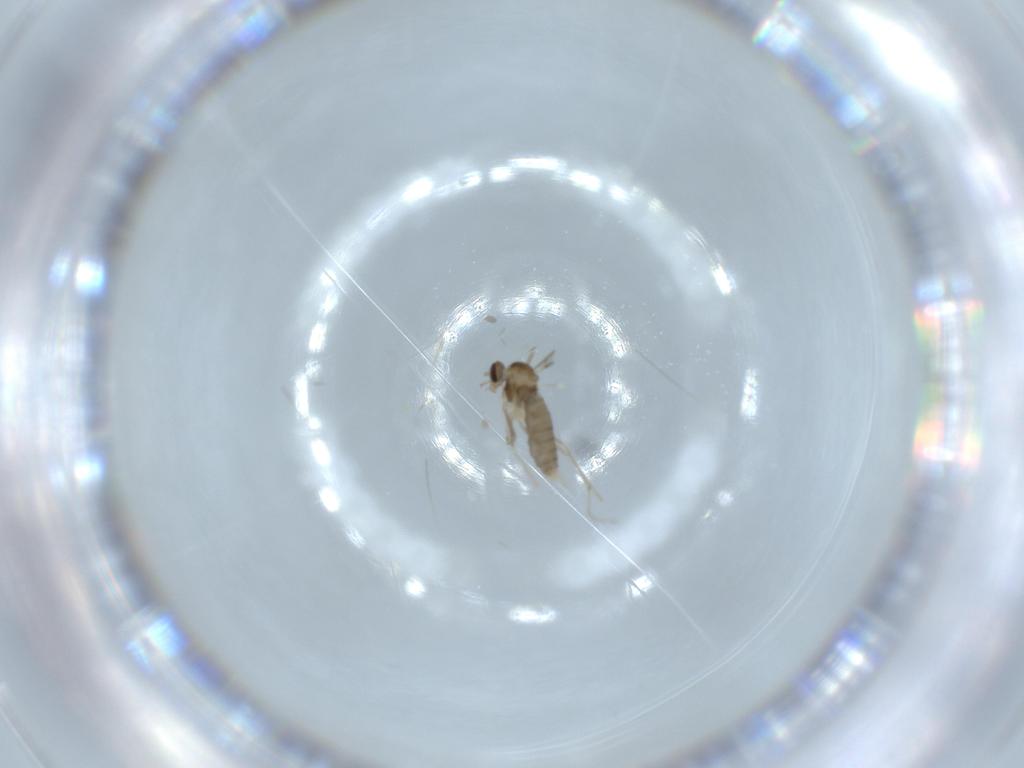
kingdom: Animalia
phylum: Arthropoda
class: Insecta
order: Diptera
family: Cecidomyiidae
